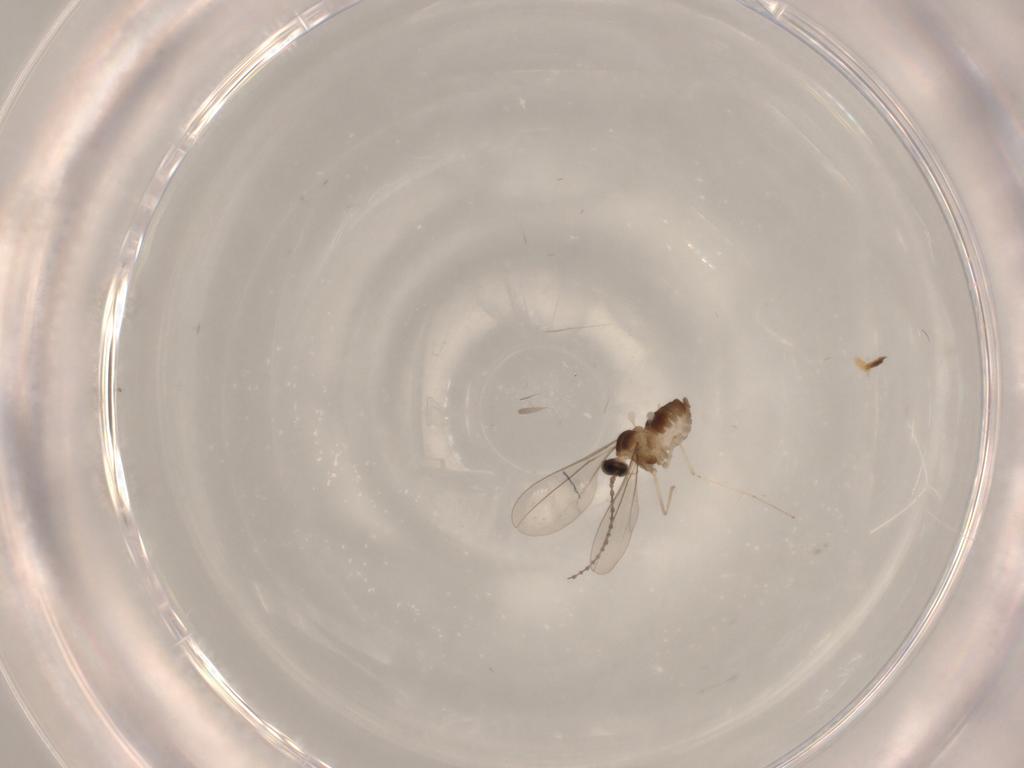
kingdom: Animalia
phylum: Arthropoda
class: Insecta
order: Diptera
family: Cecidomyiidae
